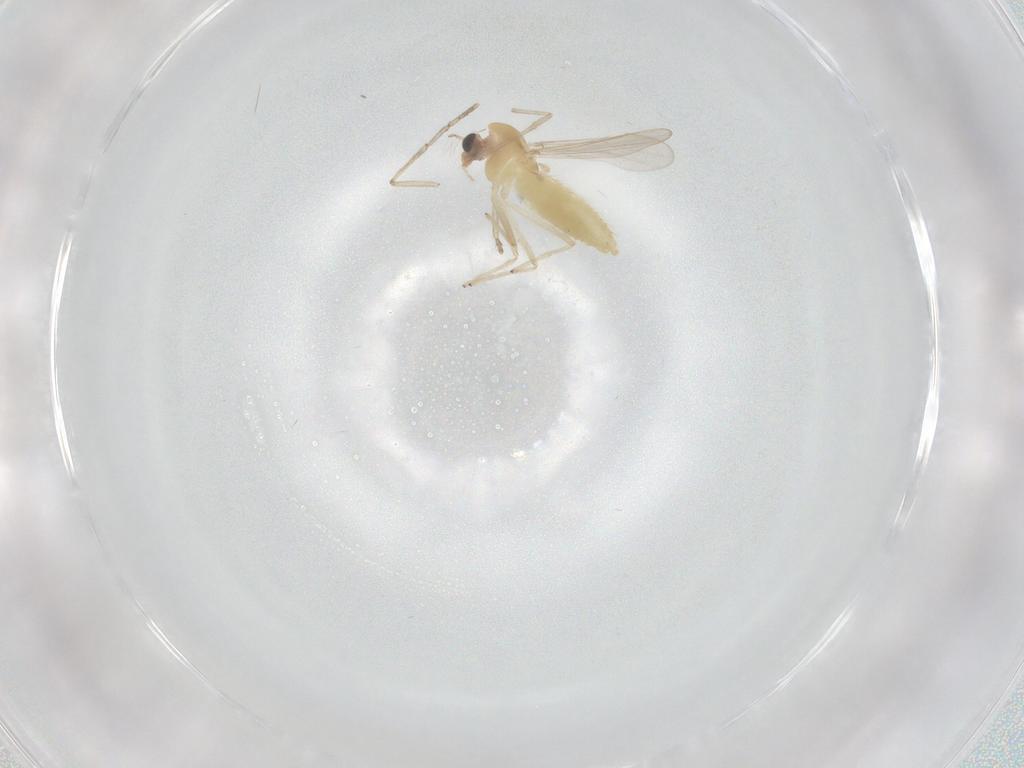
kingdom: Animalia
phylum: Arthropoda
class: Insecta
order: Diptera
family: Chironomidae
